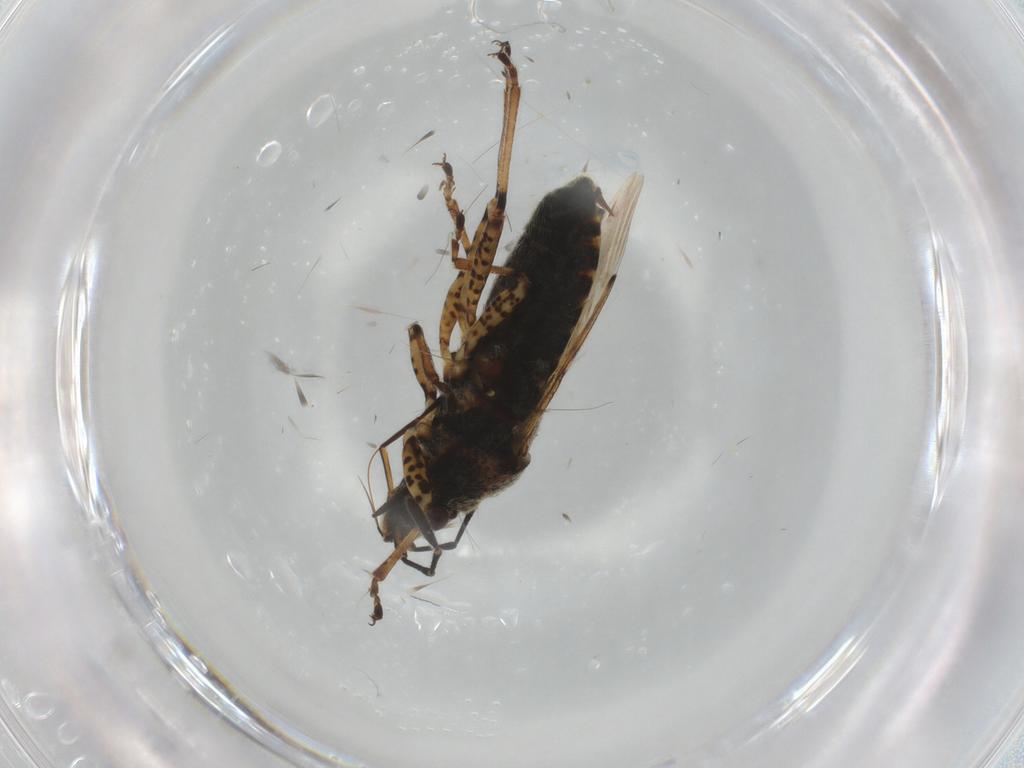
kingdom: Animalia
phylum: Arthropoda
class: Insecta
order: Hemiptera
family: Lygaeidae
